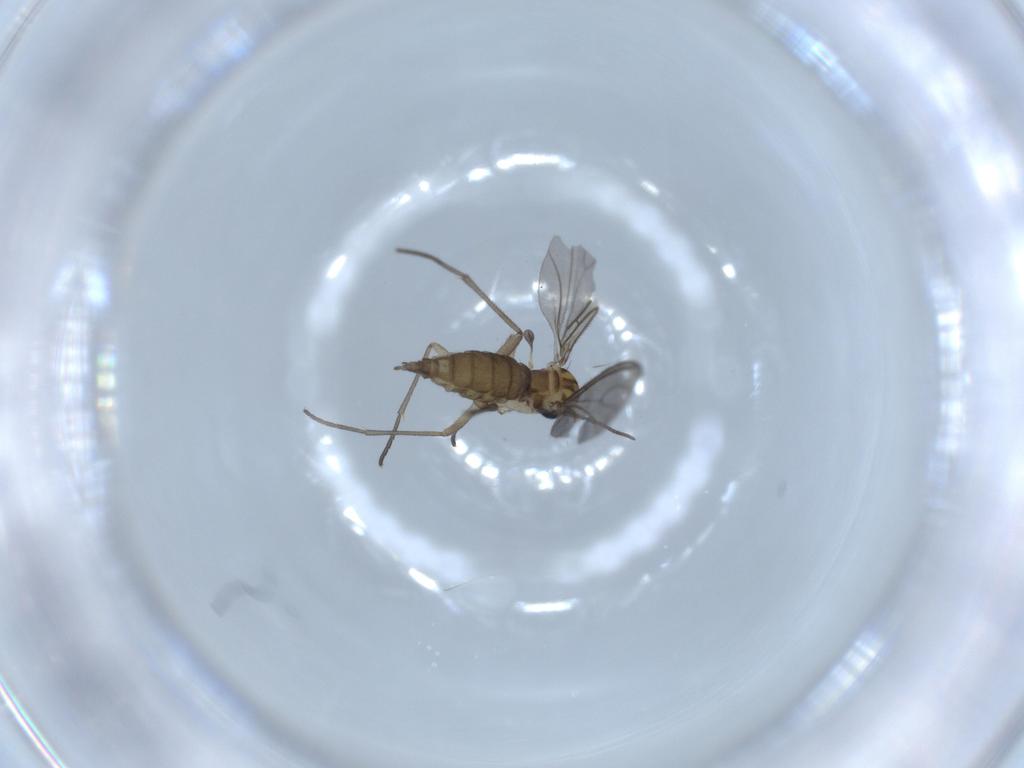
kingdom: Animalia
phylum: Arthropoda
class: Insecta
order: Diptera
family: Sciaridae
